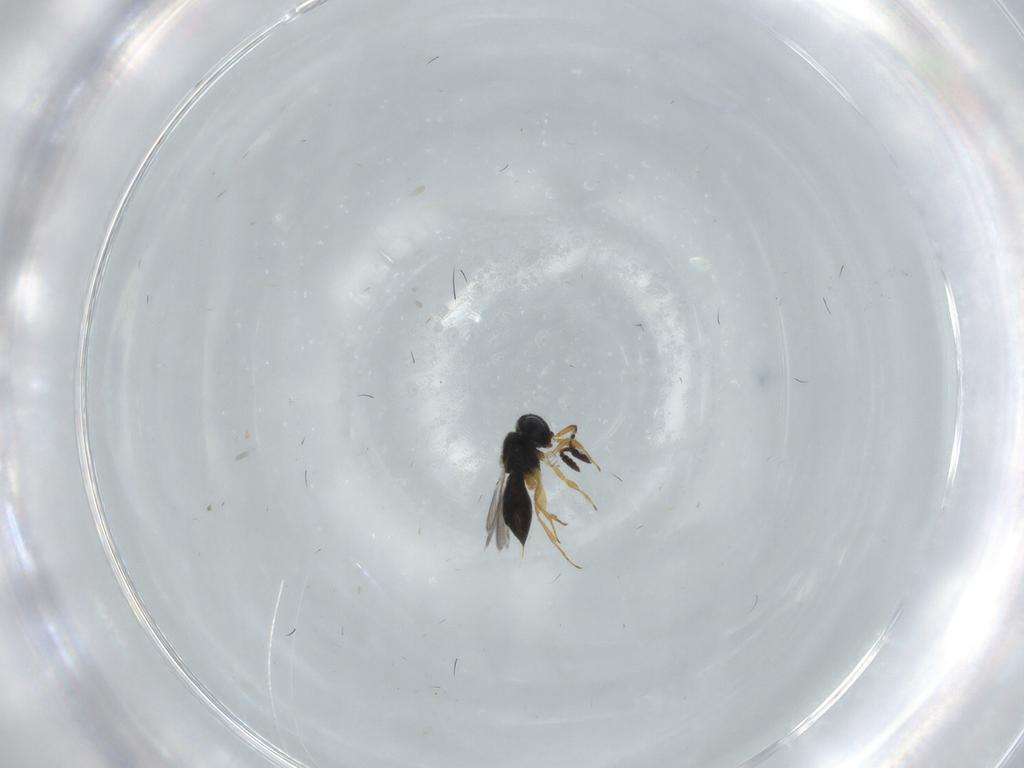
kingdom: Animalia
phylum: Arthropoda
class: Insecta
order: Hymenoptera
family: Scelionidae
